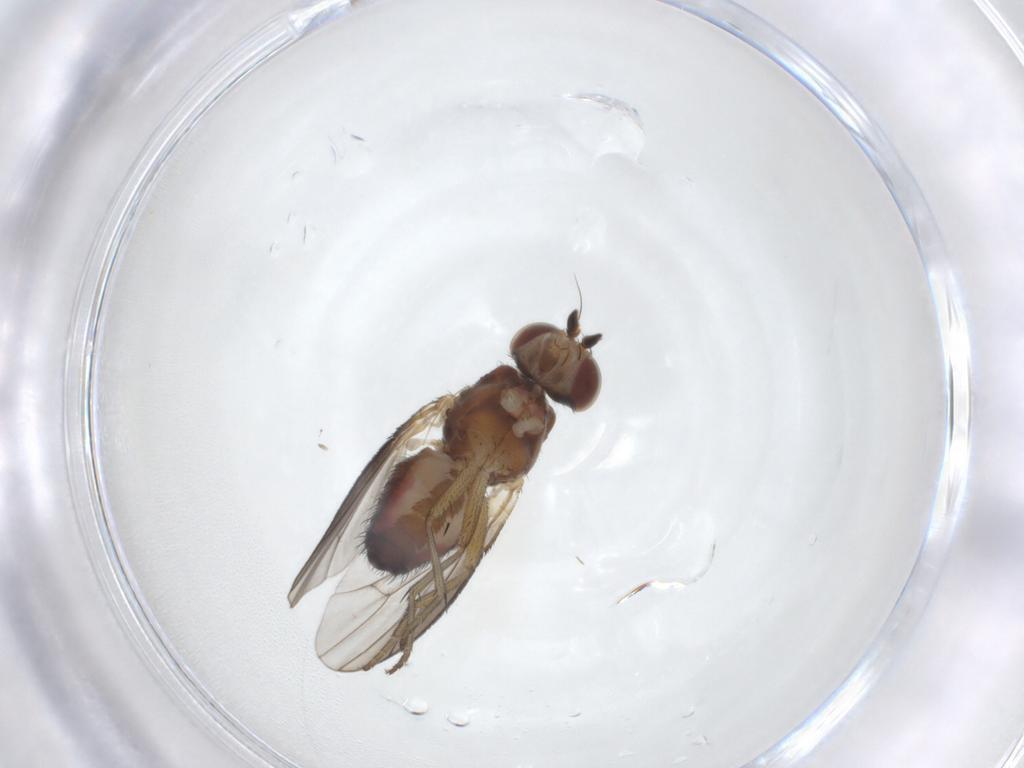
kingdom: Animalia
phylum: Arthropoda
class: Insecta
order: Diptera
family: Heleomyzidae
